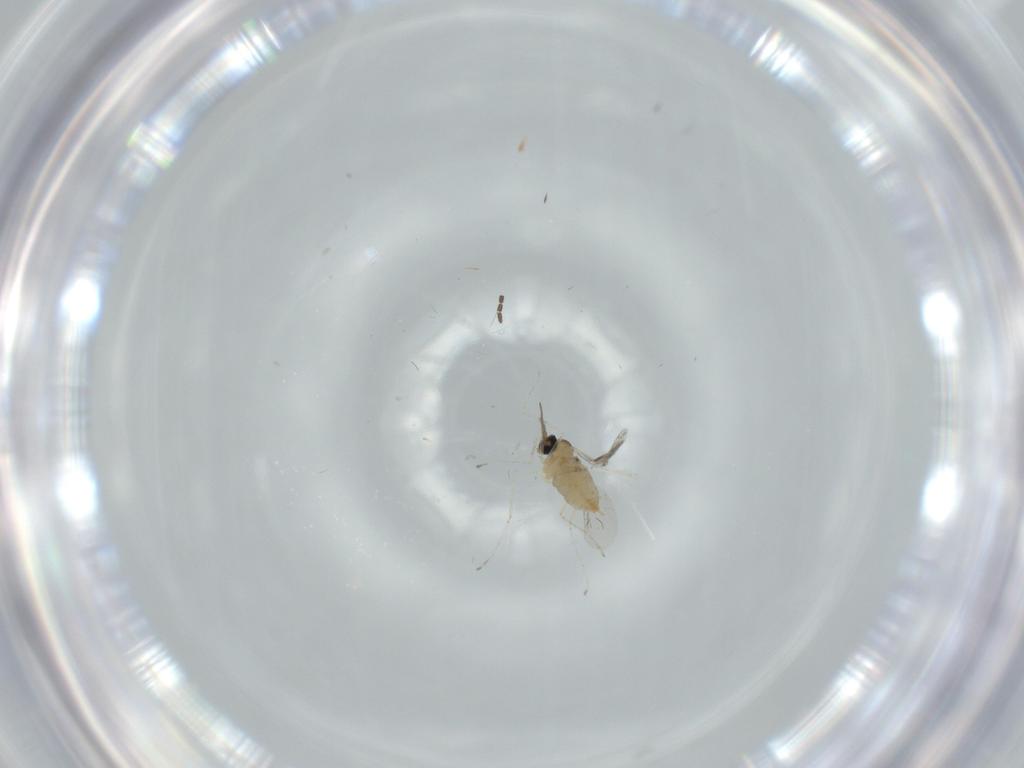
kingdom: Animalia
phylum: Arthropoda
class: Insecta
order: Diptera
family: Sciaridae
